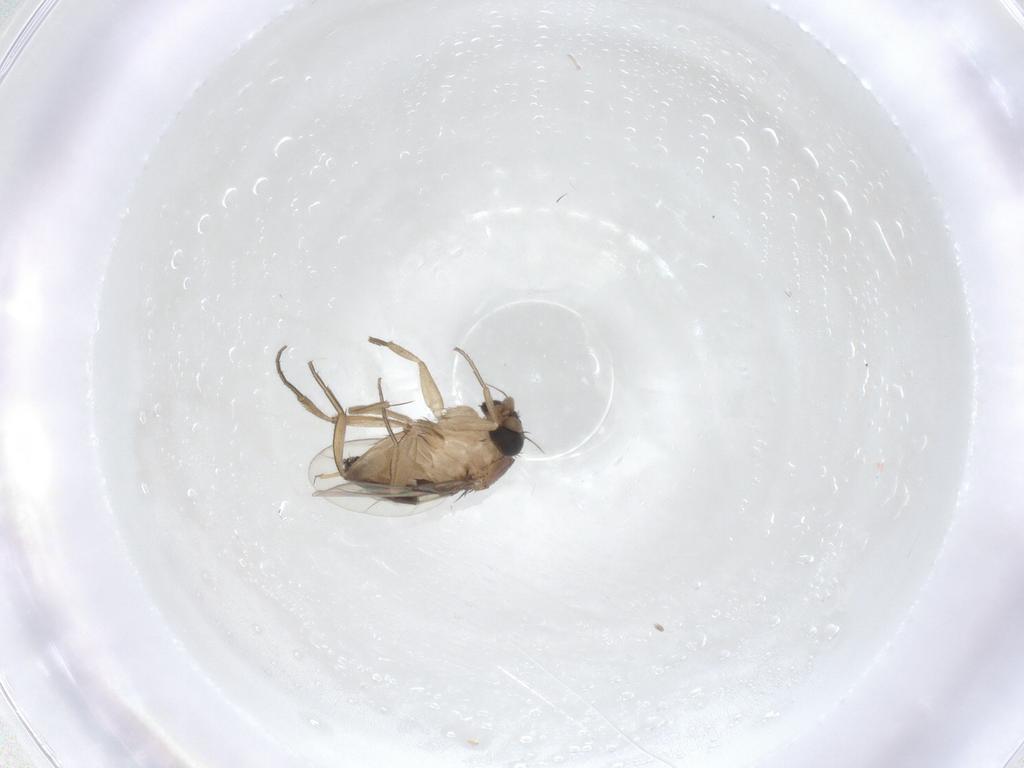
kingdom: Animalia
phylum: Arthropoda
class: Insecta
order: Diptera
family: Phoridae
